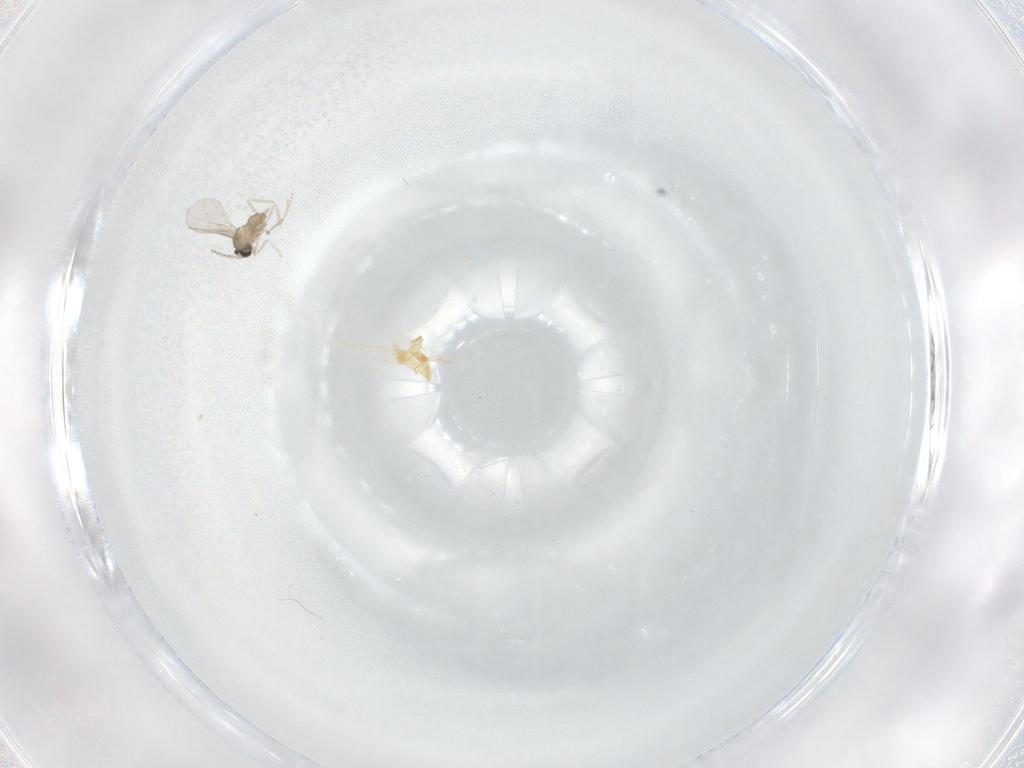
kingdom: Animalia
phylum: Arthropoda
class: Insecta
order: Diptera
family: Cecidomyiidae
